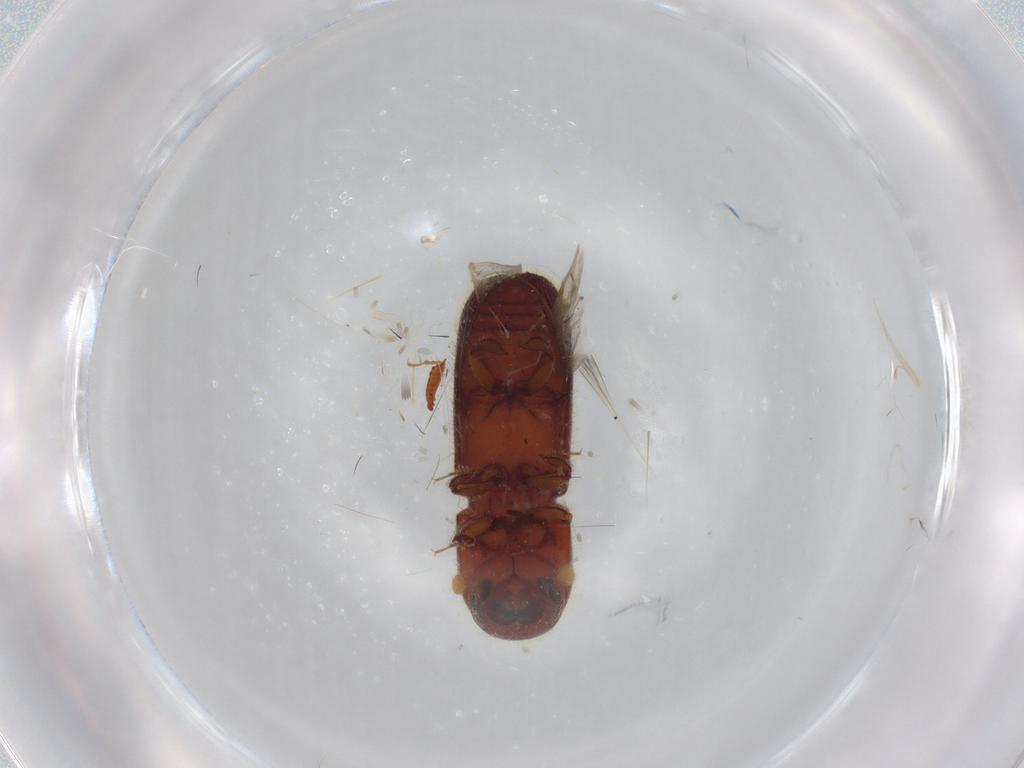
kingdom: Animalia
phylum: Arthropoda
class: Insecta
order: Coleoptera
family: Curculionidae
